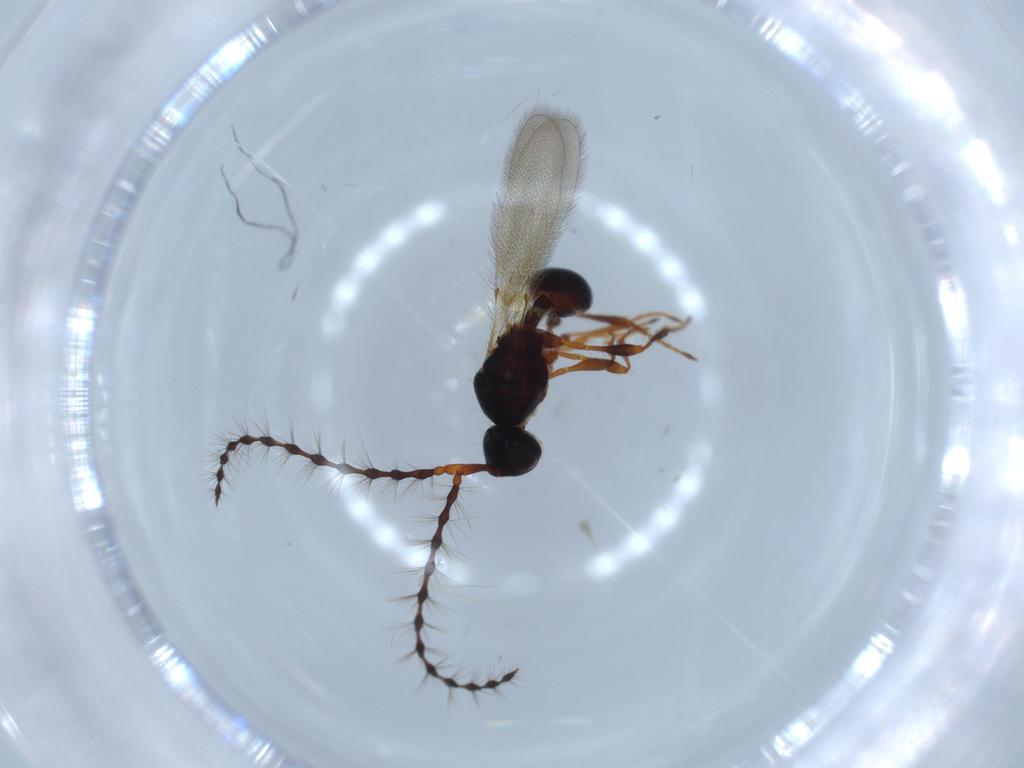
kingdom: Animalia
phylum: Arthropoda
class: Insecta
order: Hymenoptera
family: Diapriidae
